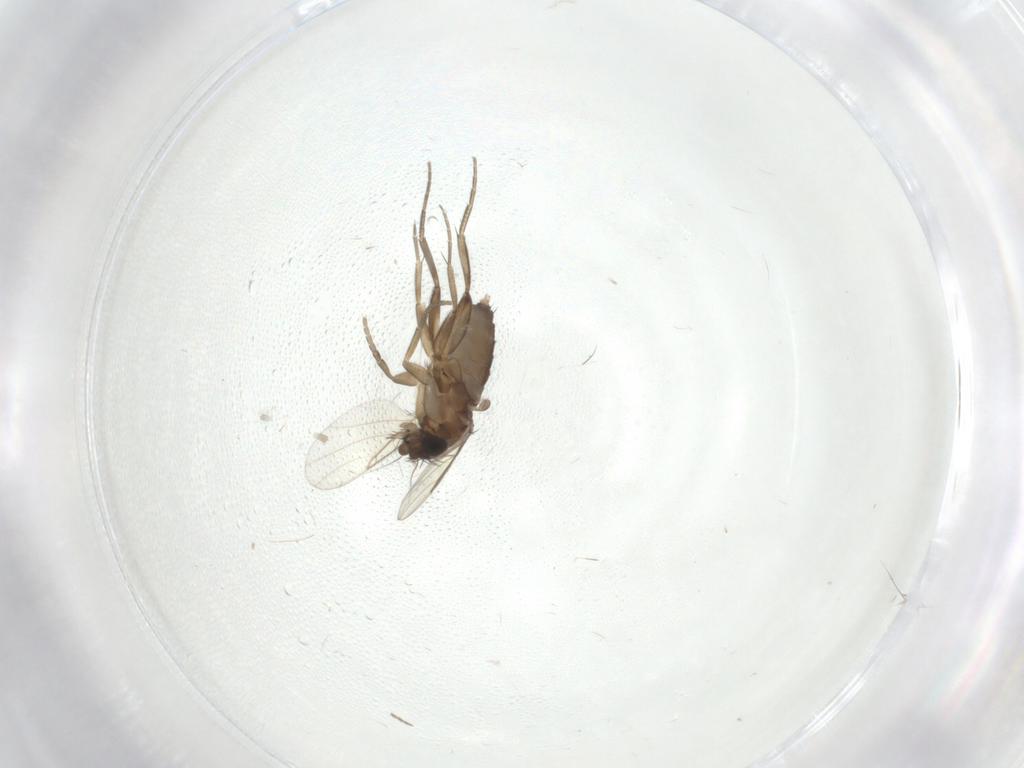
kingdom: Animalia
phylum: Arthropoda
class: Insecta
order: Diptera
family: Phoridae
